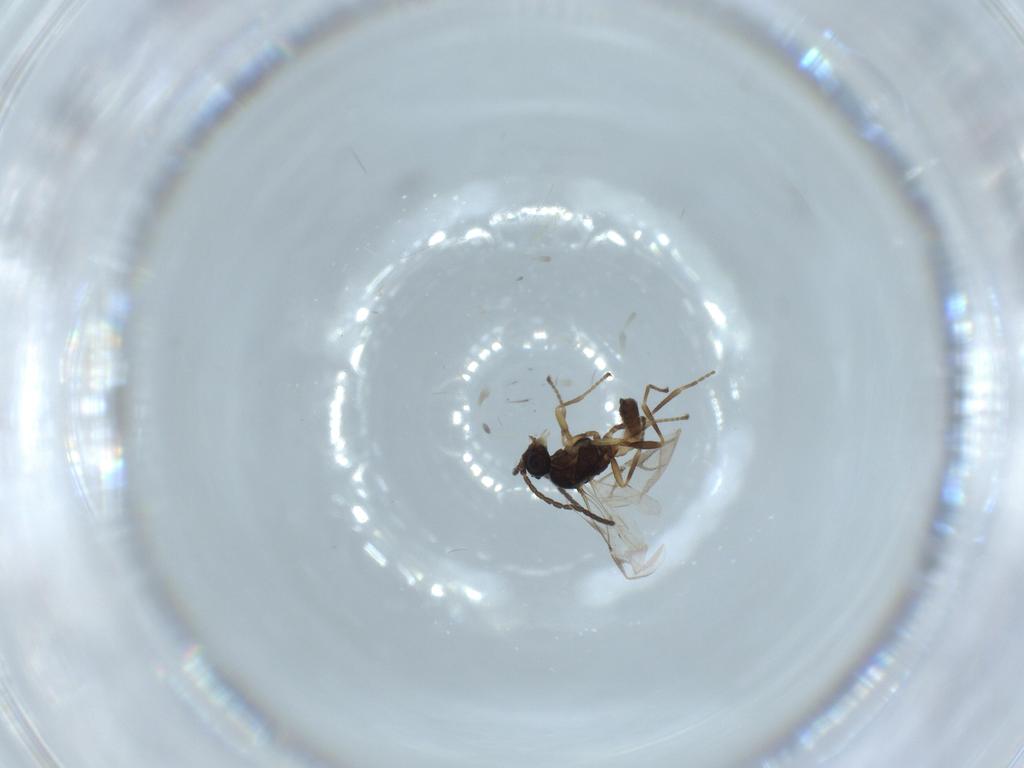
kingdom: Animalia
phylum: Arthropoda
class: Insecta
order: Hymenoptera
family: Braconidae
